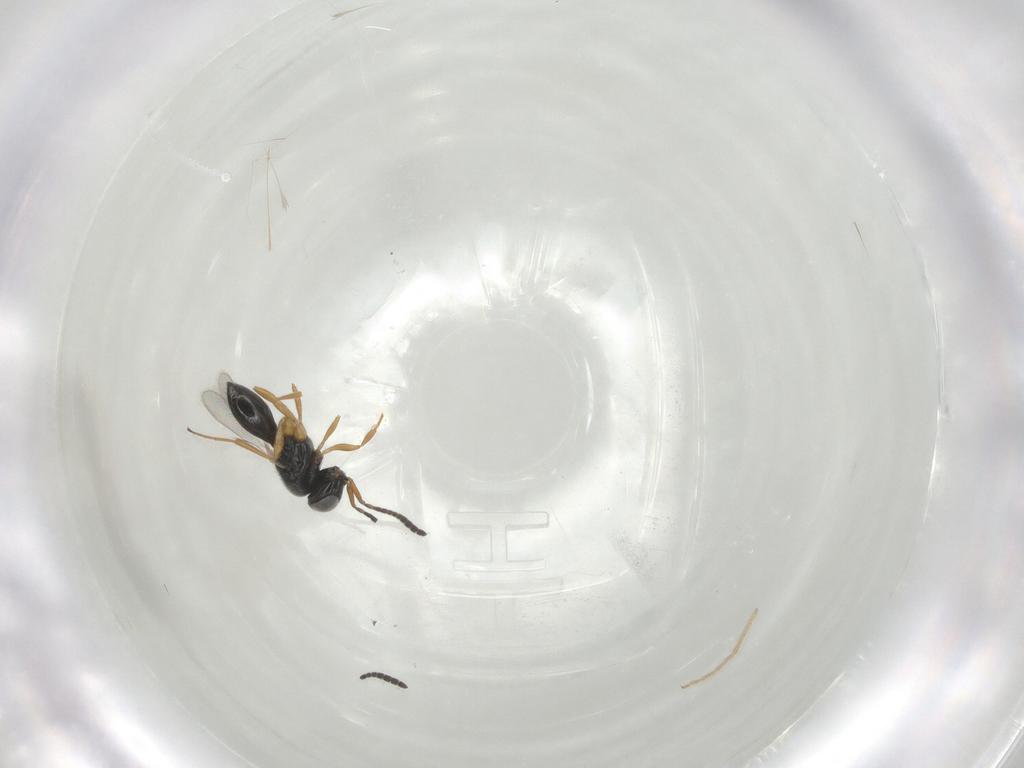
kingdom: Animalia
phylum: Arthropoda
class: Insecta
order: Hymenoptera
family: Scelionidae
